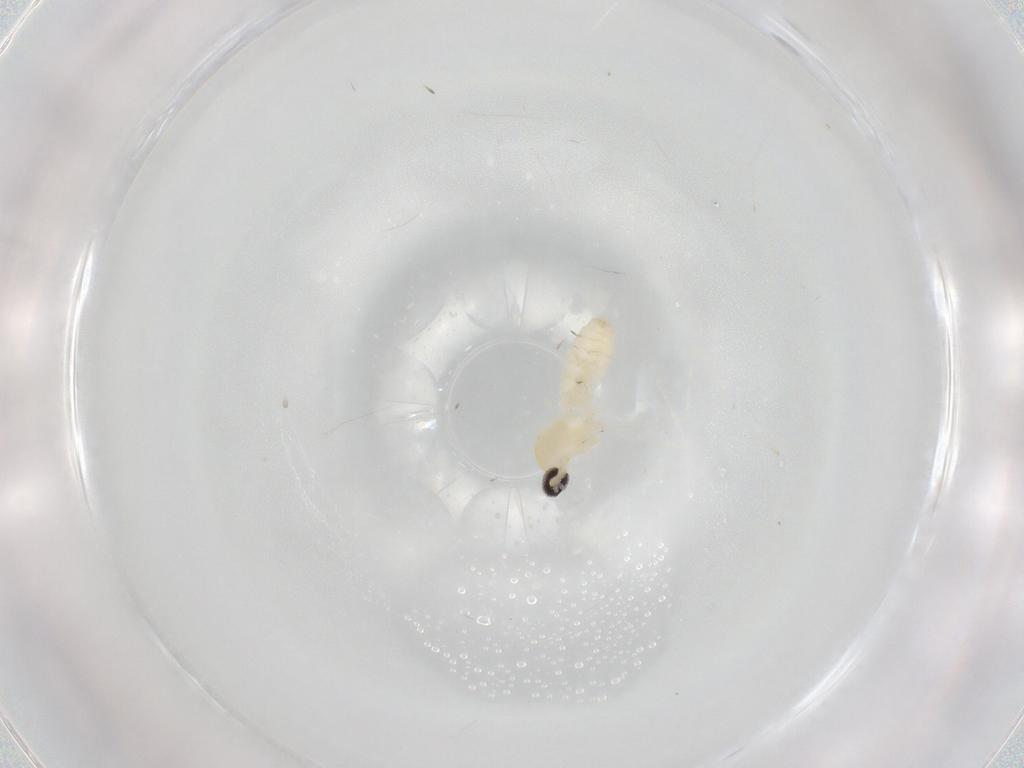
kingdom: Animalia
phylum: Arthropoda
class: Insecta
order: Diptera
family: Cecidomyiidae
